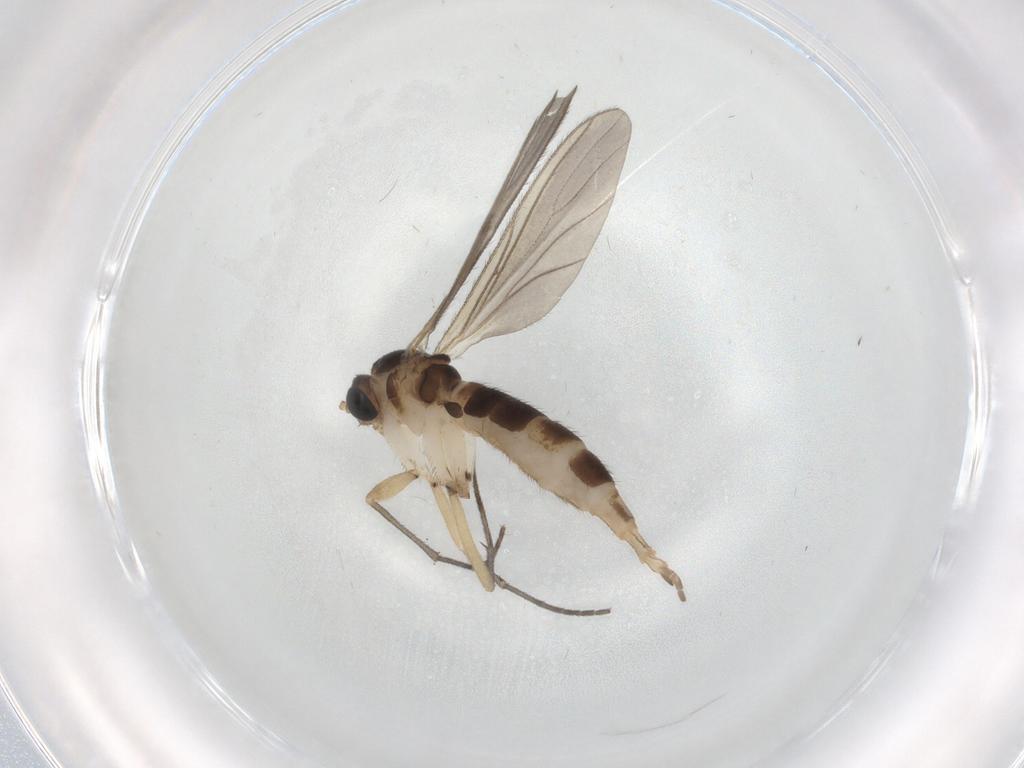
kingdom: Animalia
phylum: Arthropoda
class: Insecta
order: Diptera
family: Sciaridae
